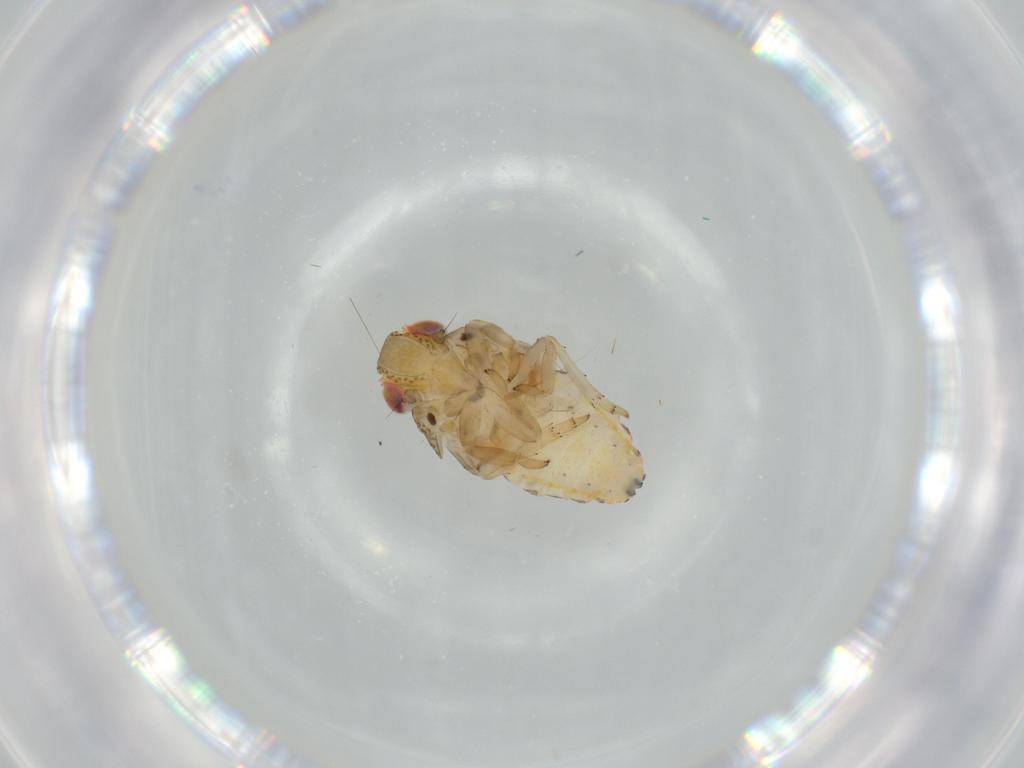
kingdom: Animalia
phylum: Arthropoda
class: Insecta
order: Hemiptera
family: Issidae
